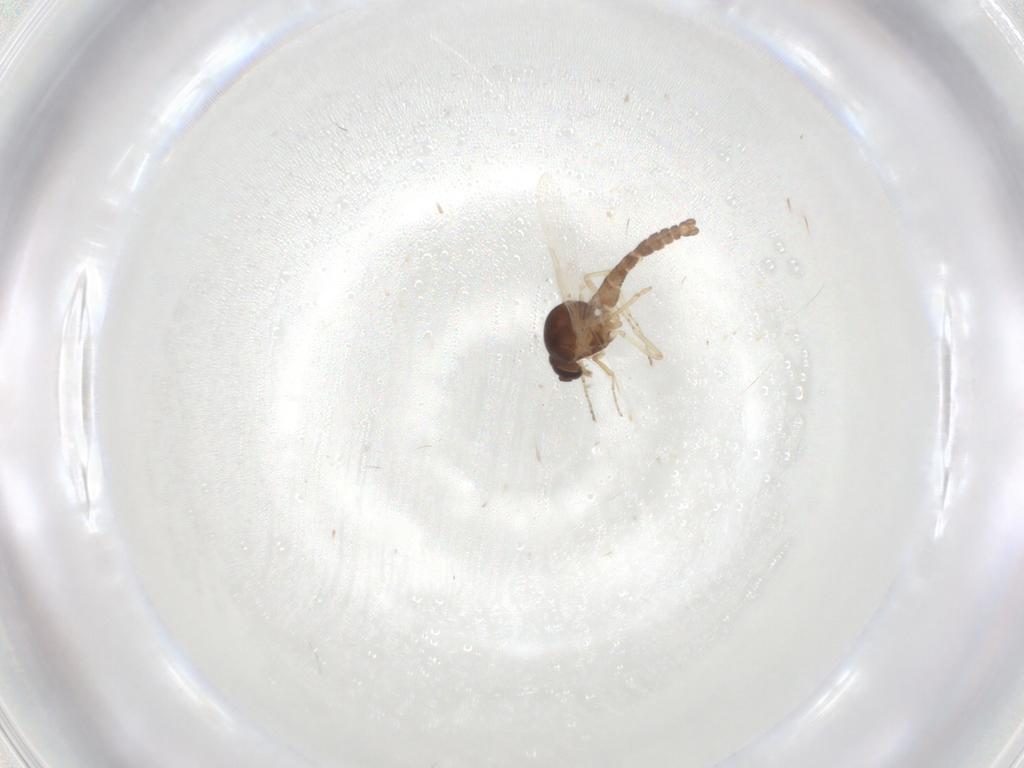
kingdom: Animalia
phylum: Arthropoda
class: Insecta
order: Diptera
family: Ceratopogonidae
